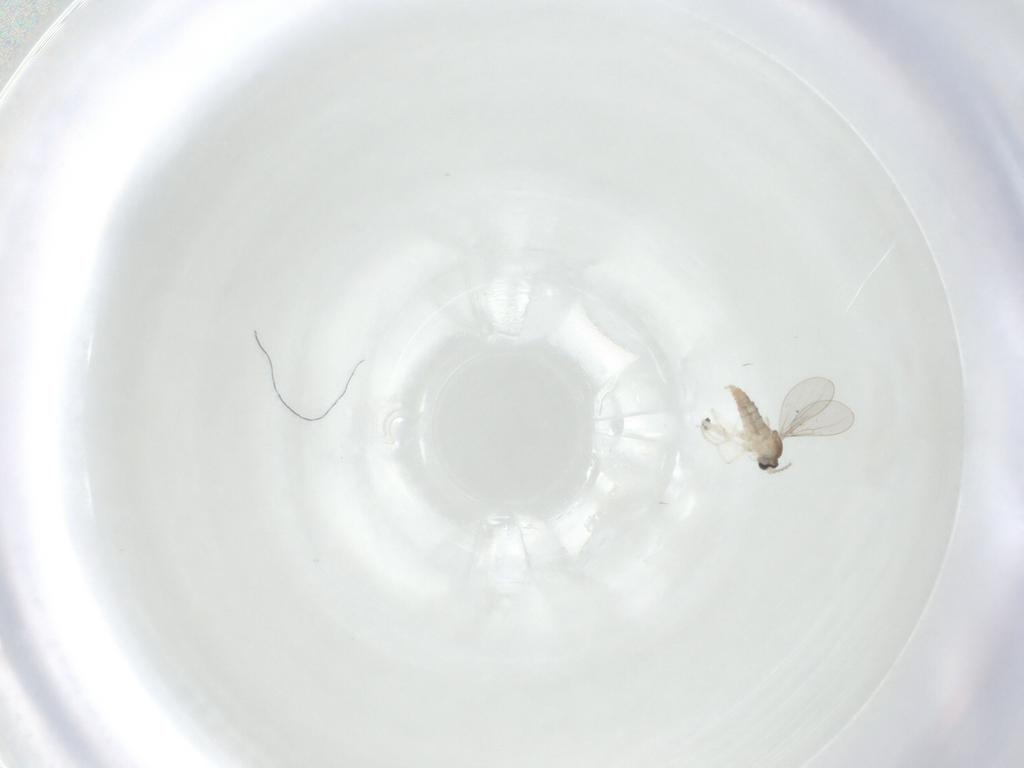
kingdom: Animalia
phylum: Arthropoda
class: Insecta
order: Diptera
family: Cecidomyiidae
